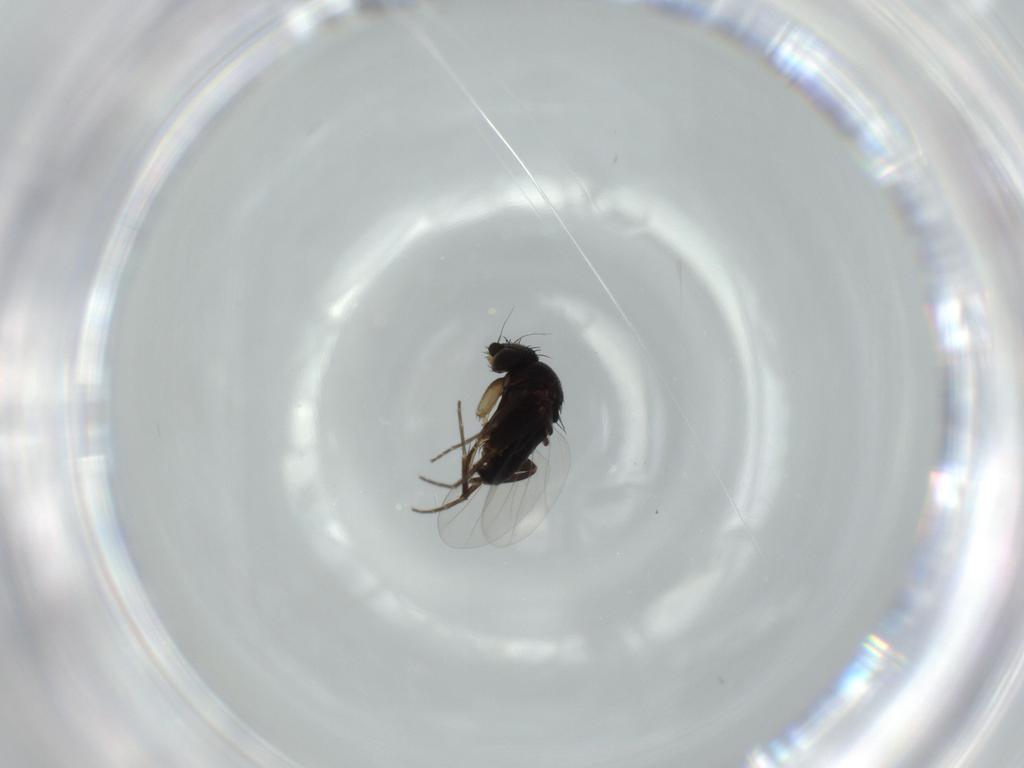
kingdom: Animalia
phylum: Arthropoda
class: Insecta
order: Diptera
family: Phoridae
